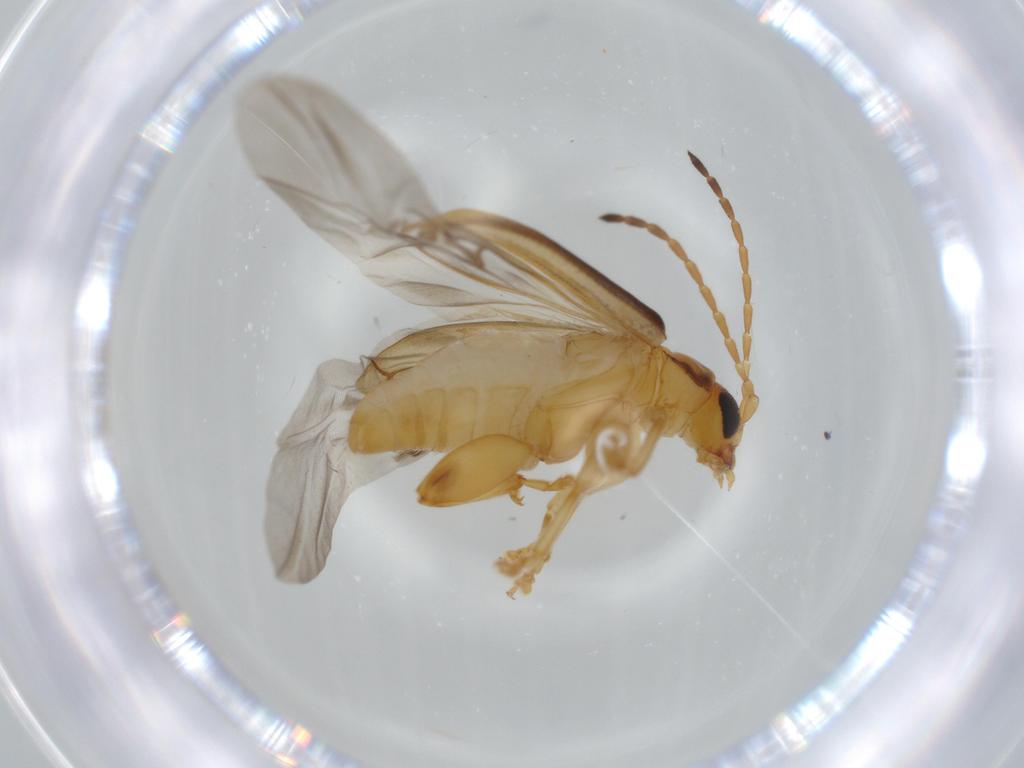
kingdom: Animalia
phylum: Arthropoda
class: Insecta
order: Coleoptera
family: Chrysomelidae
